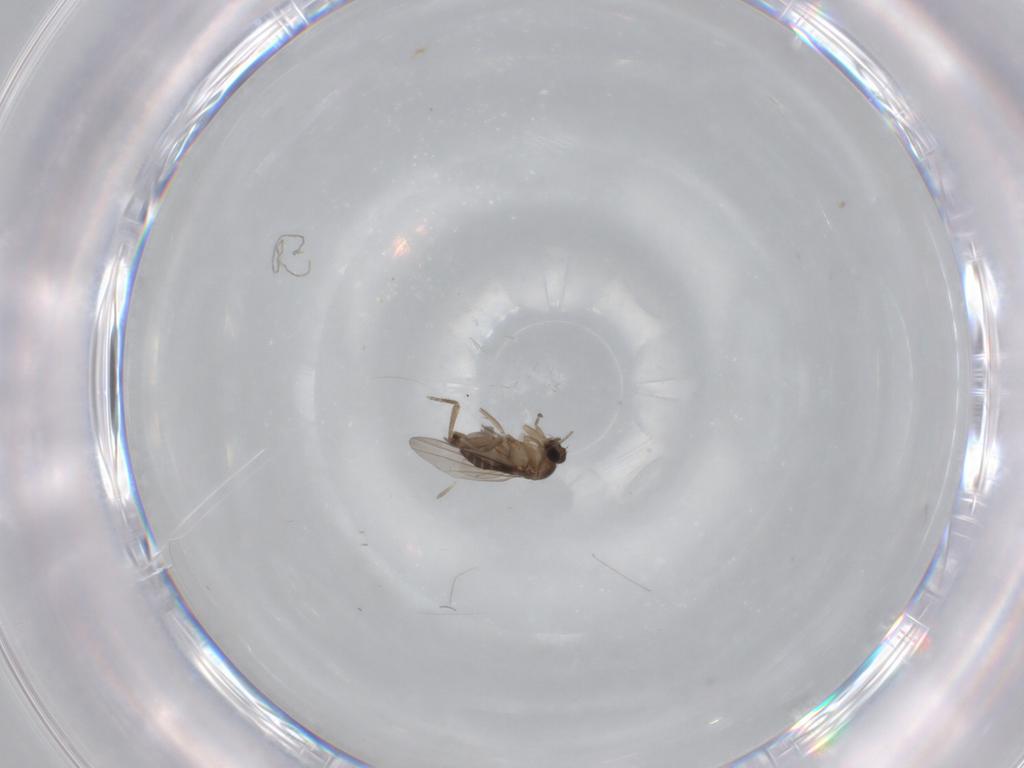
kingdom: Animalia
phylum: Arthropoda
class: Insecta
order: Diptera
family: Phoridae
